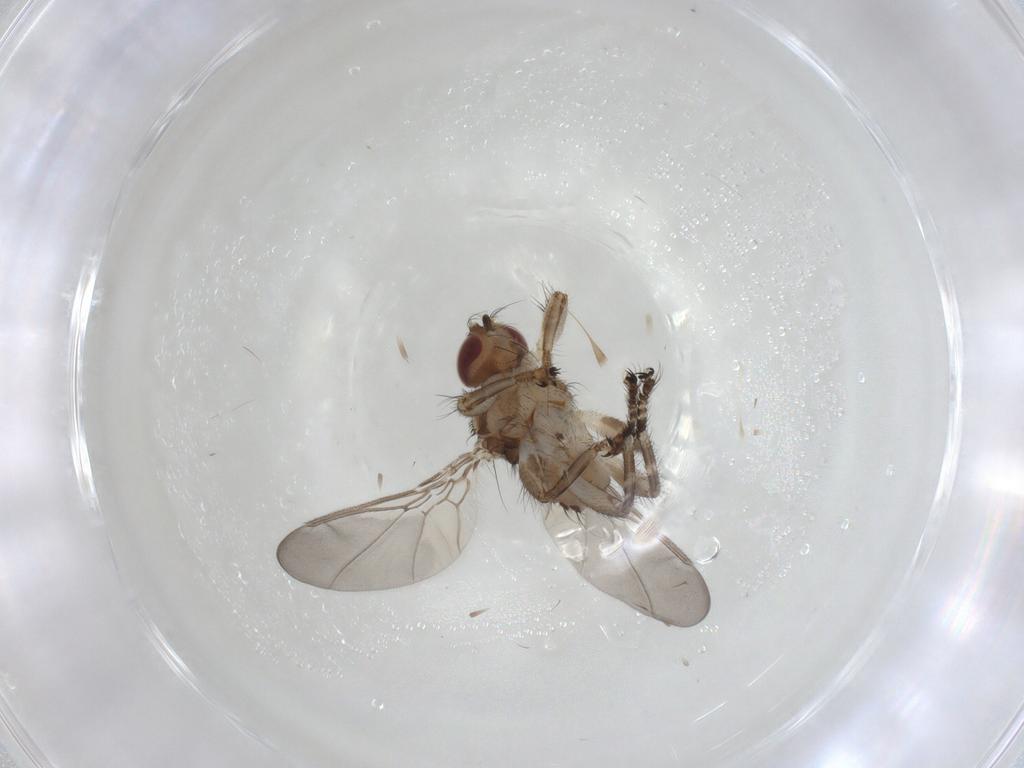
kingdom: Animalia
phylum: Arthropoda
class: Insecta
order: Diptera
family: Hippoboscidae
